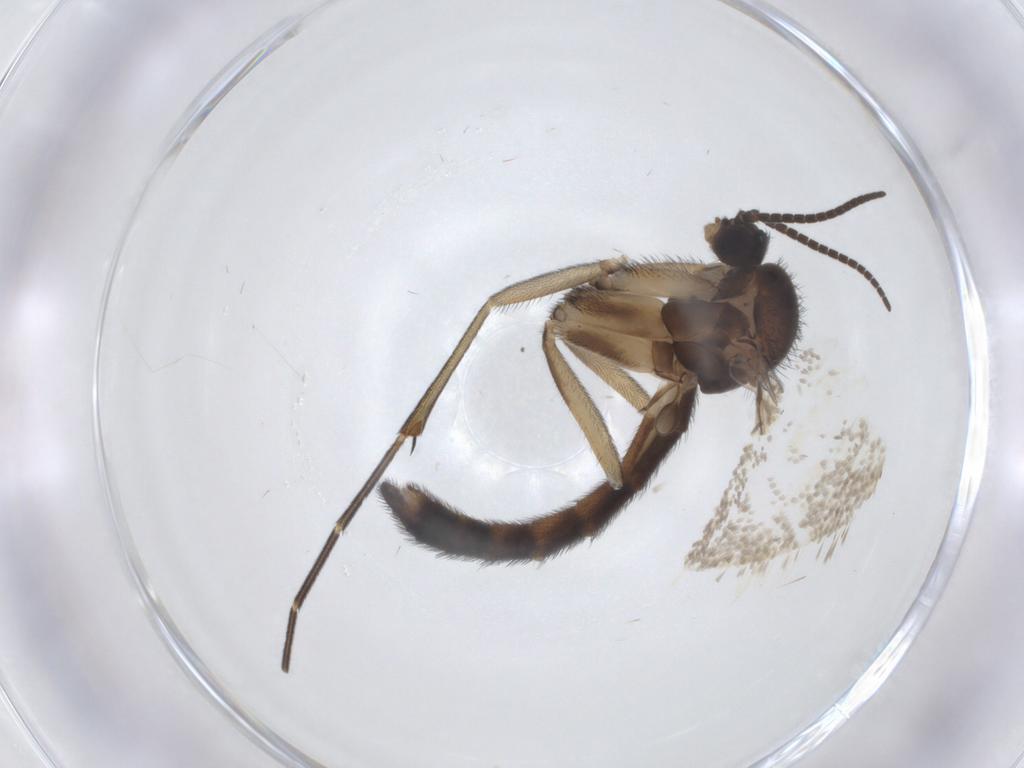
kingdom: Animalia
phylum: Arthropoda
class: Insecta
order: Diptera
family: Keroplatidae
